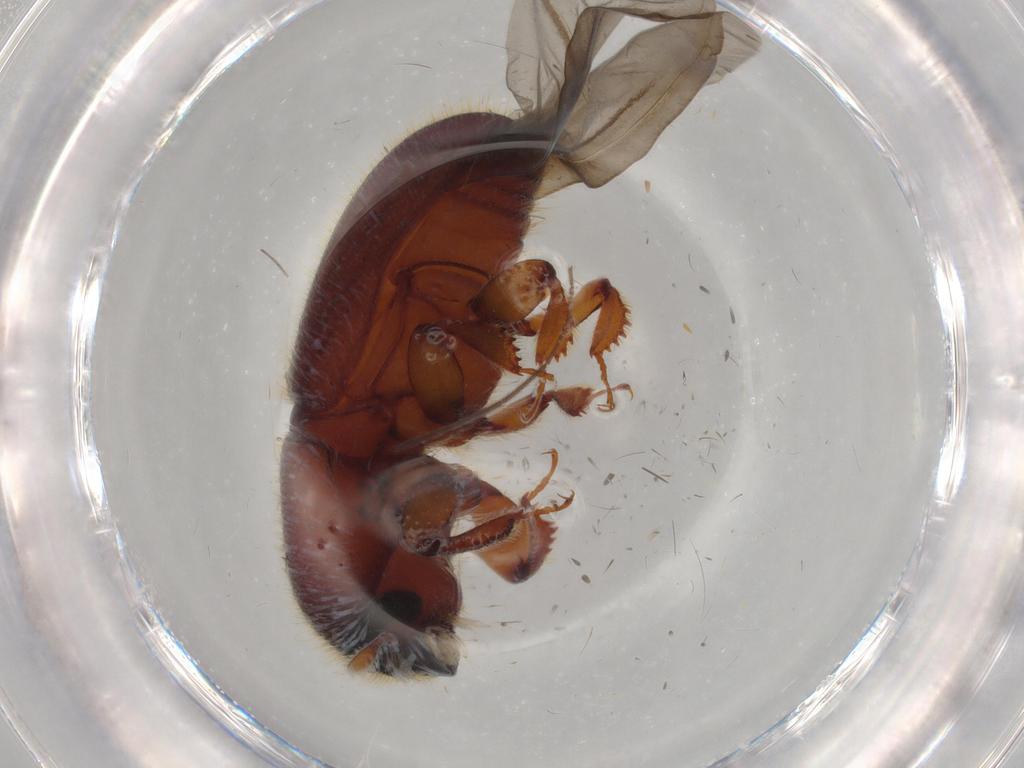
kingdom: Animalia
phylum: Arthropoda
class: Insecta
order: Coleoptera
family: Curculionidae
